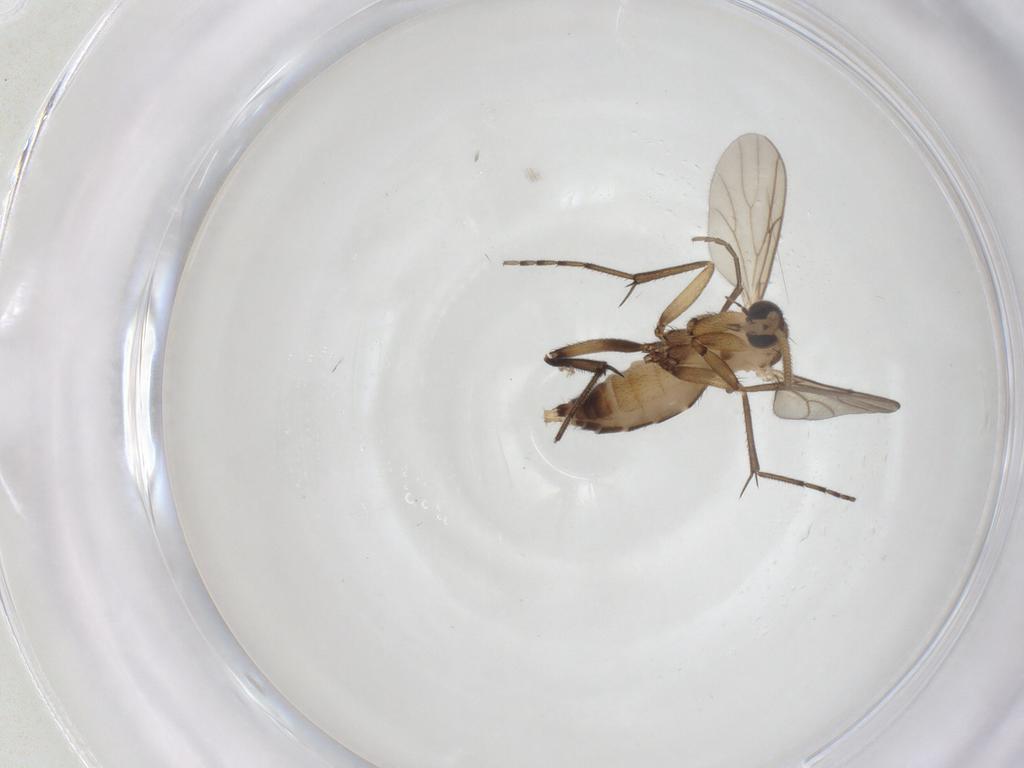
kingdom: Animalia
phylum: Arthropoda
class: Insecta
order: Diptera
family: Mycetophilidae
